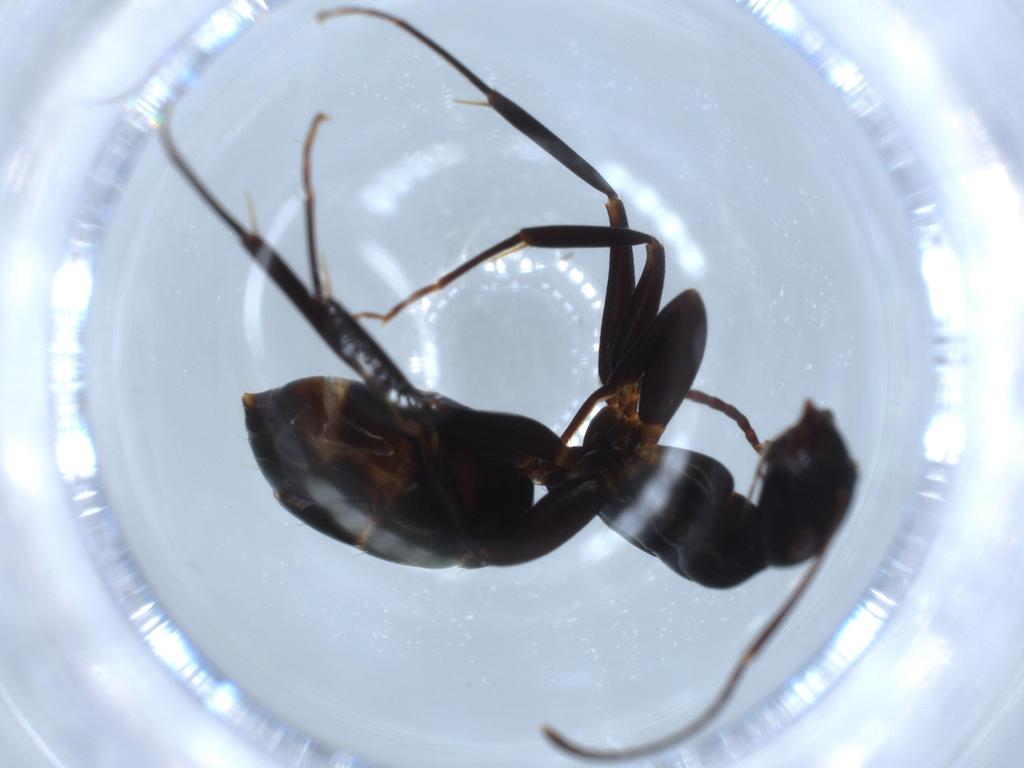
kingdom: Animalia
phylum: Arthropoda
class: Insecta
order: Hymenoptera
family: Formicidae
